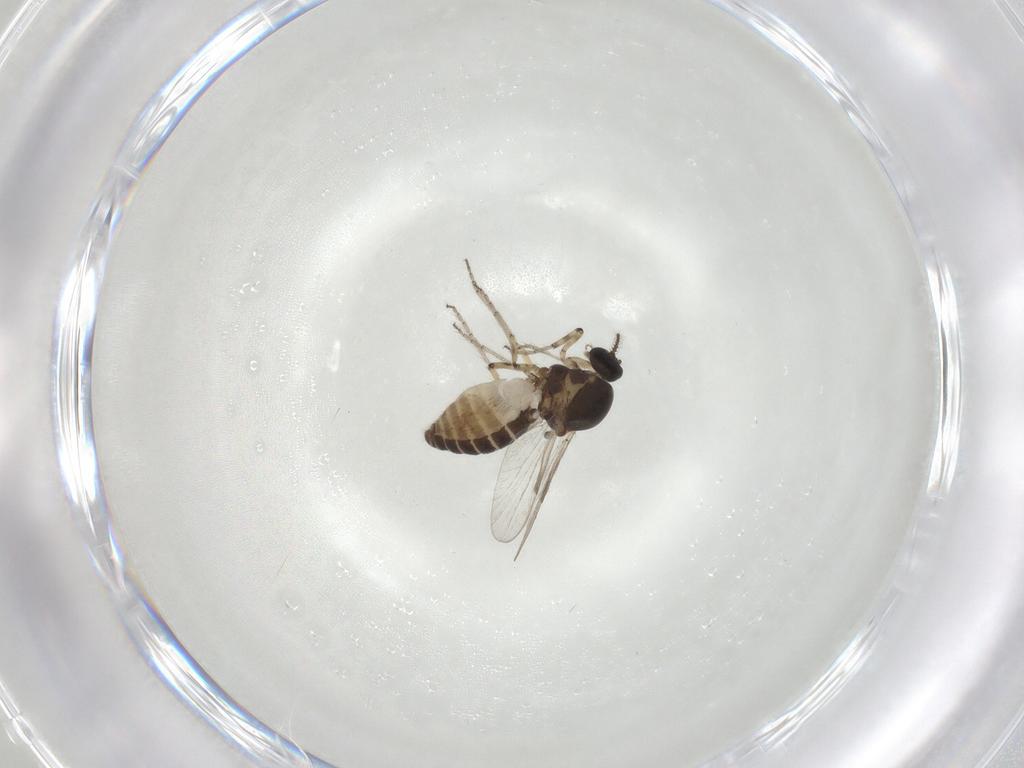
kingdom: Animalia
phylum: Arthropoda
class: Insecta
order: Diptera
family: Ceratopogonidae
